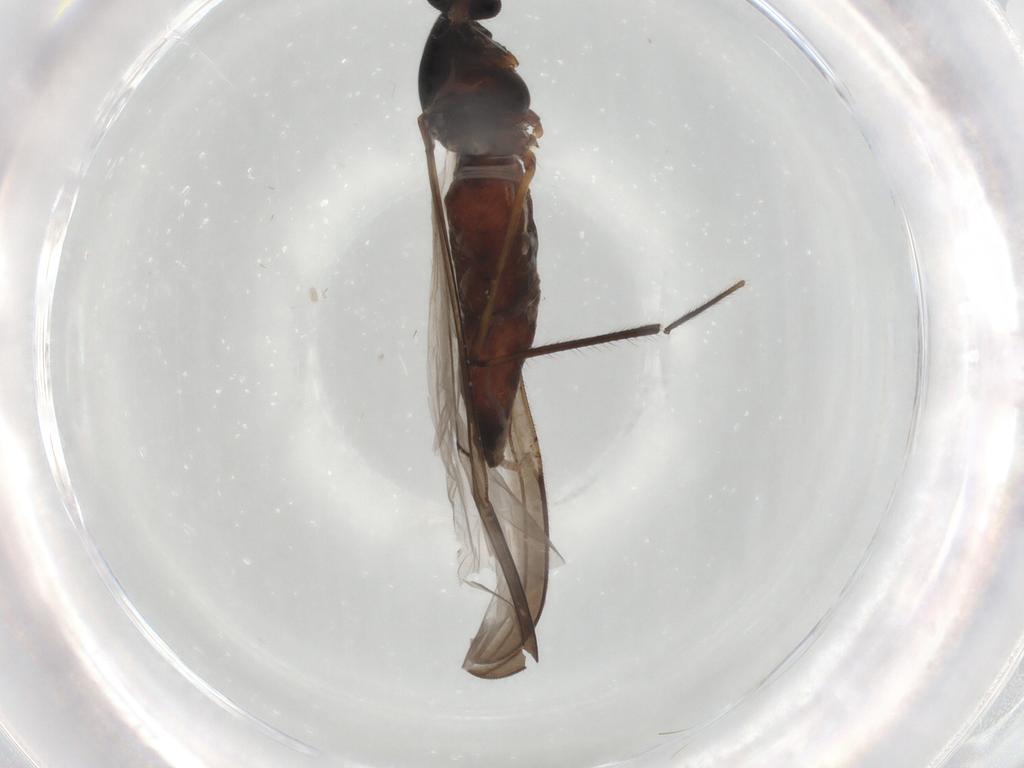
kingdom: Animalia
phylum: Arthropoda
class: Insecta
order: Diptera
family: Ceratopogonidae
